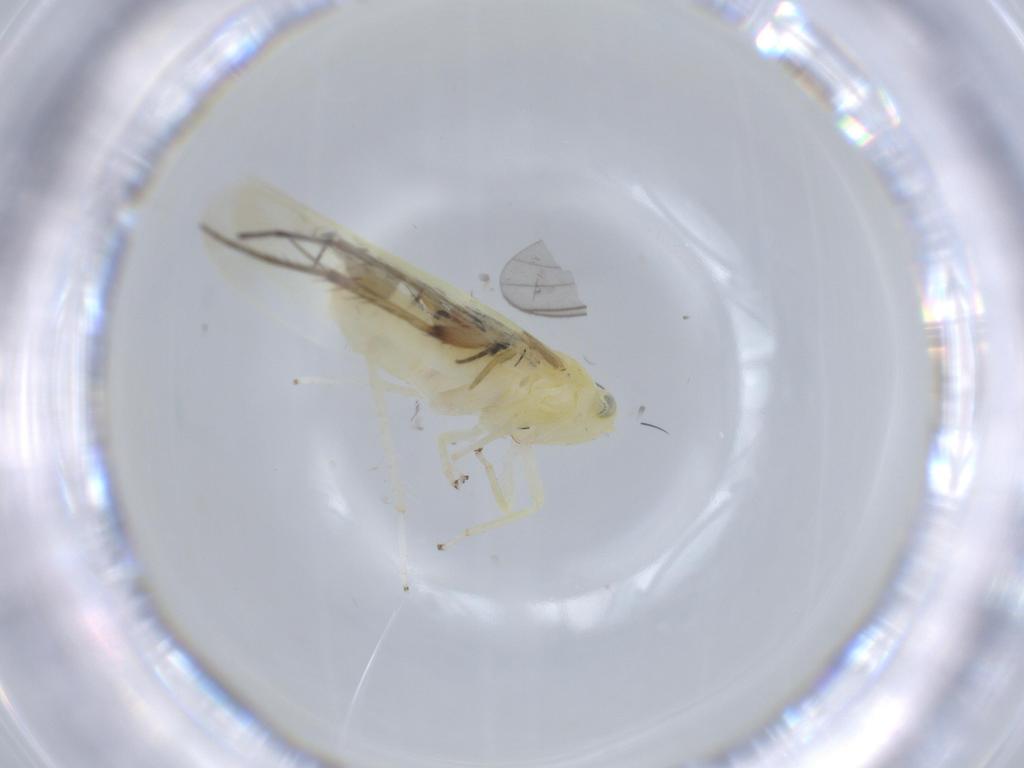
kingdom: Animalia
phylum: Arthropoda
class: Insecta
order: Hemiptera
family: Cicadellidae
